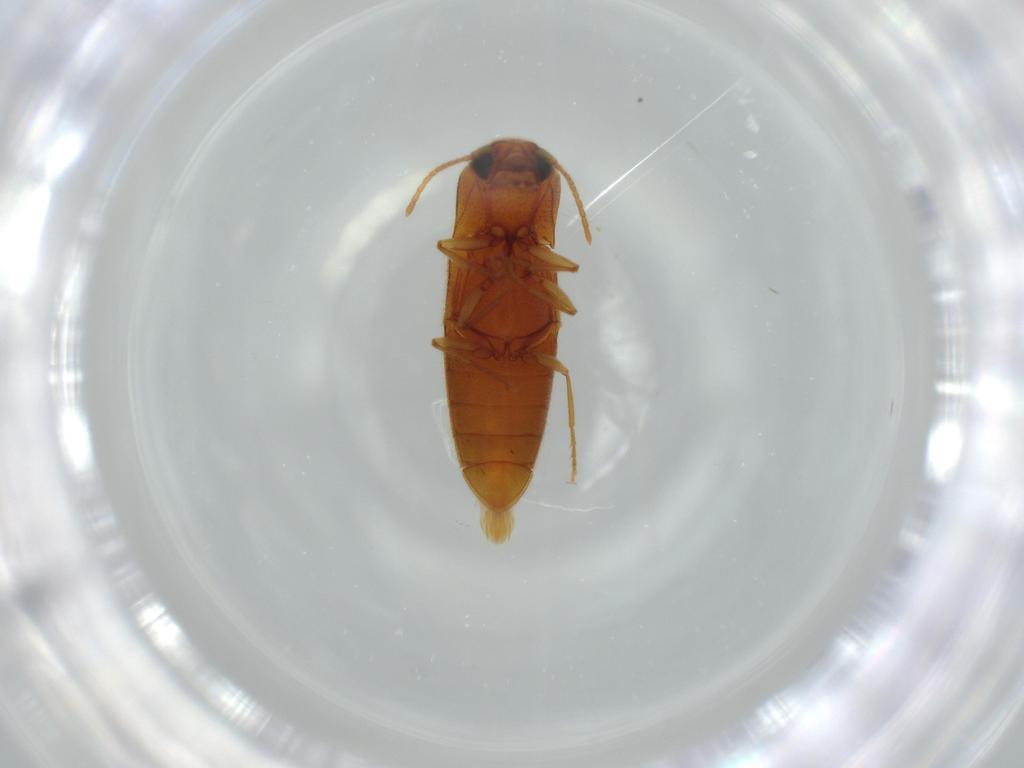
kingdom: Animalia
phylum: Arthropoda
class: Insecta
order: Coleoptera
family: Elateridae
